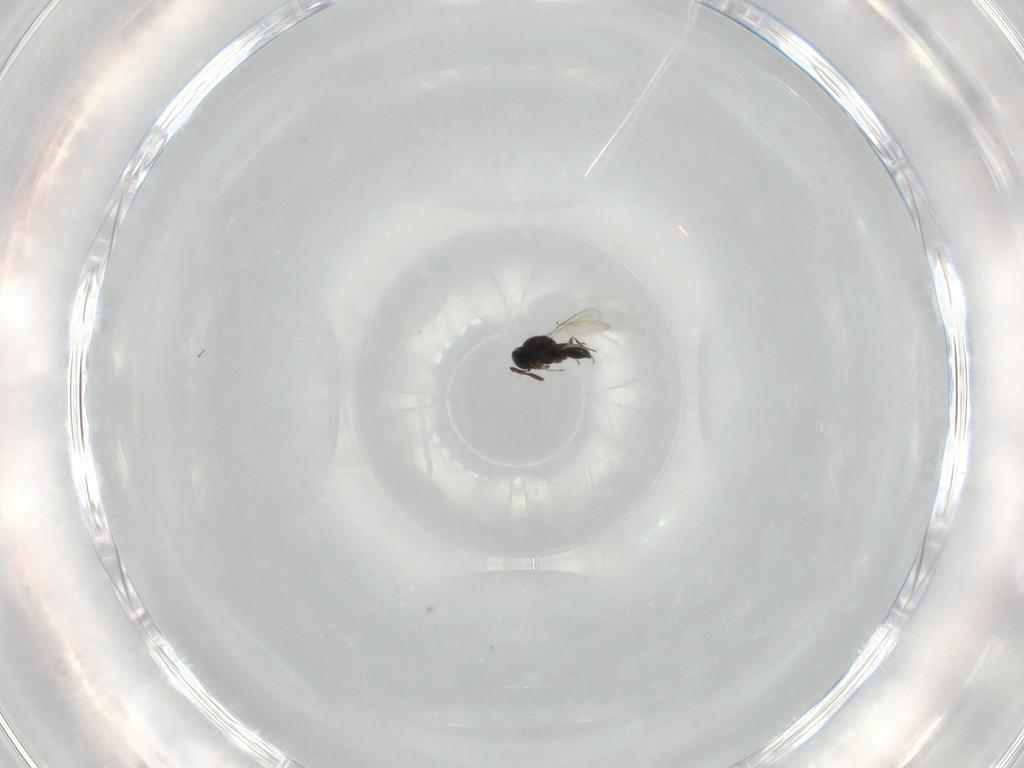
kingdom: Animalia
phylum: Arthropoda
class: Insecta
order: Hymenoptera
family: Scelionidae
